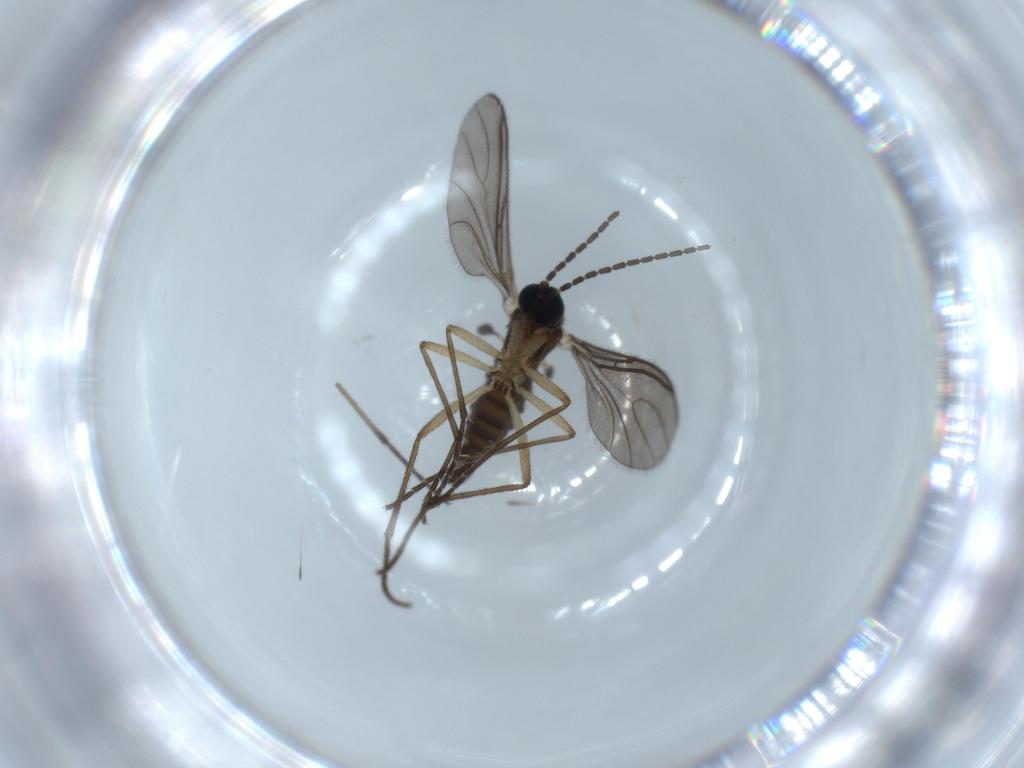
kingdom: Animalia
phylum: Arthropoda
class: Insecta
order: Diptera
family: Sciaridae
